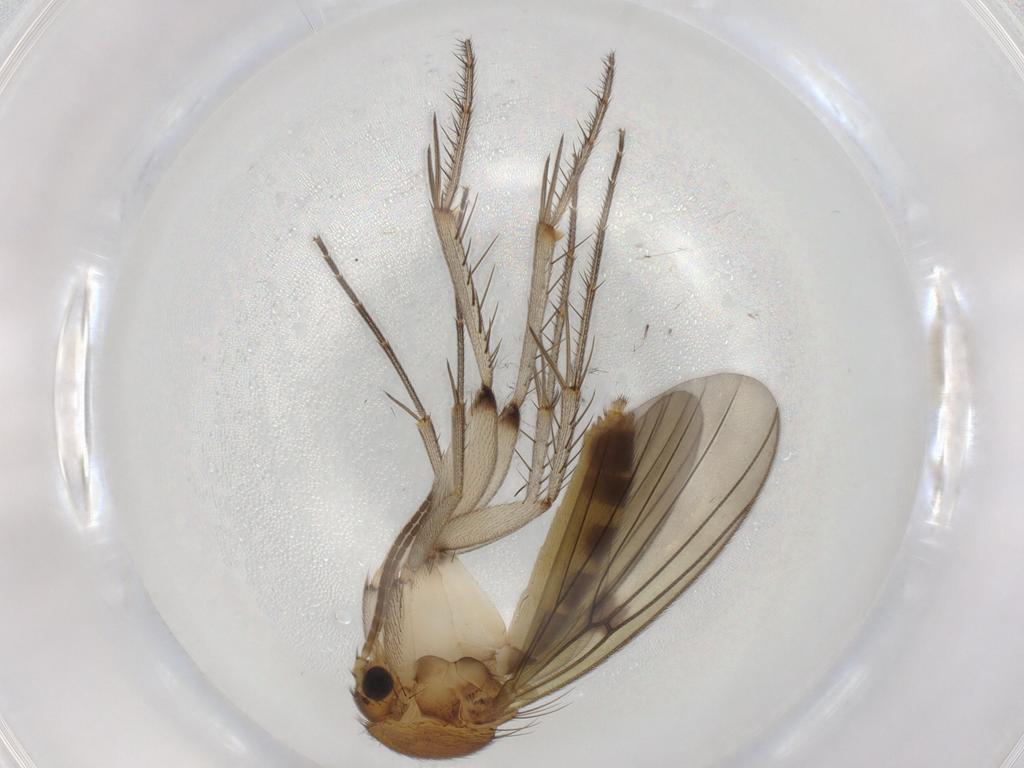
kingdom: Animalia
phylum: Arthropoda
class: Insecta
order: Diptera
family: Mycetophilidae
